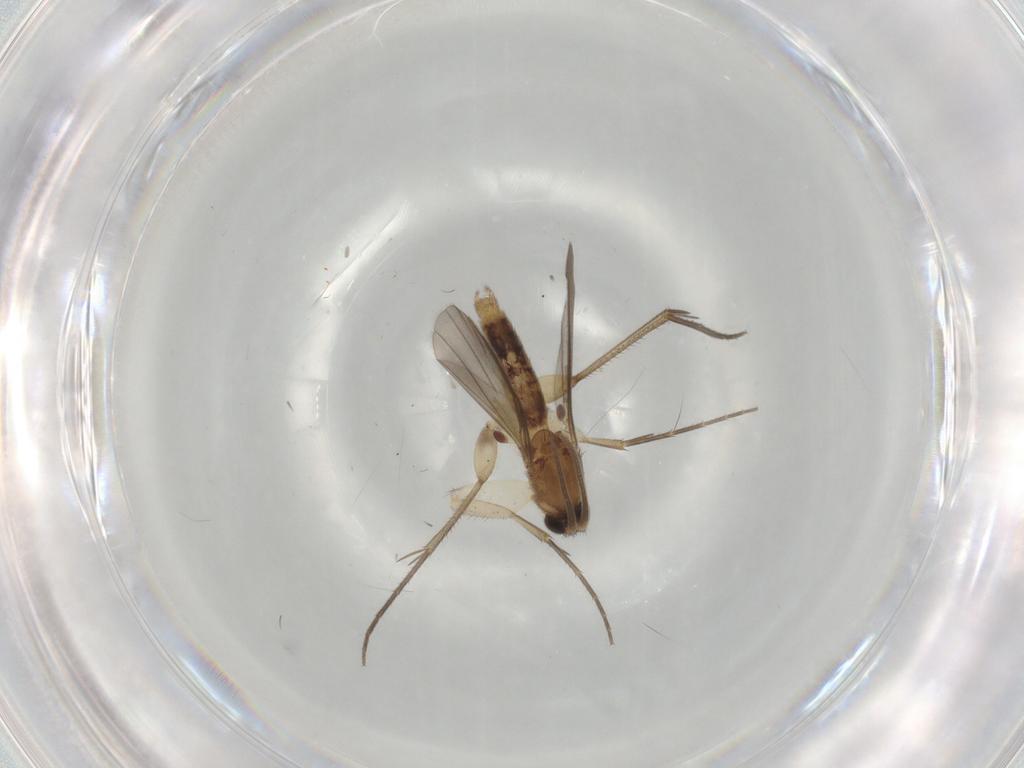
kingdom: Animalia
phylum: Arthropoda
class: Insecta
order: Diptera
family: Mycetophilidae
